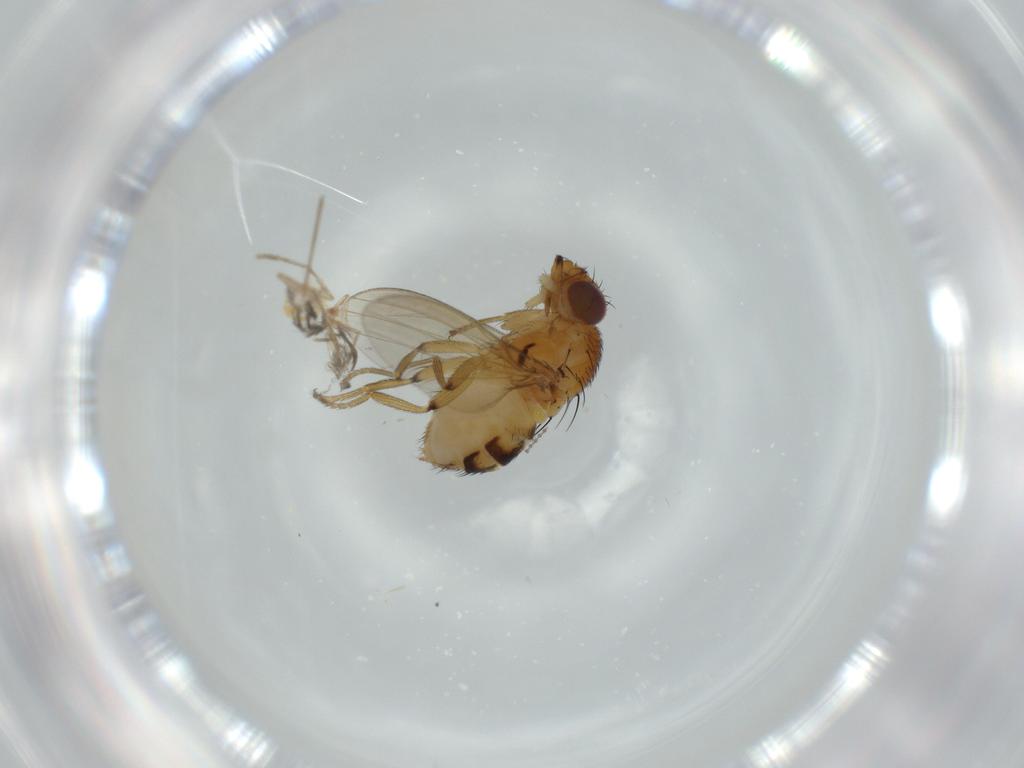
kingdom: Animalia
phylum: Arthropoda
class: Insecta
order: Diptera
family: Milichiidae
